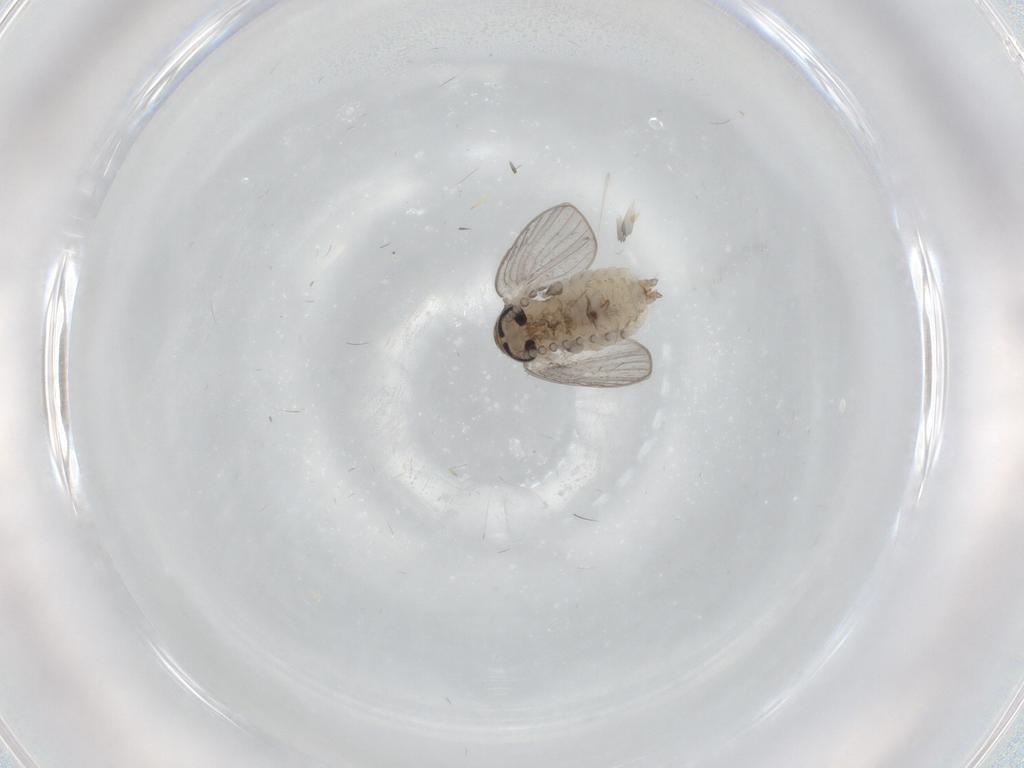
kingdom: Animalia
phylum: Arthropoda
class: Insecta
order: Diptera
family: Psychodidae
